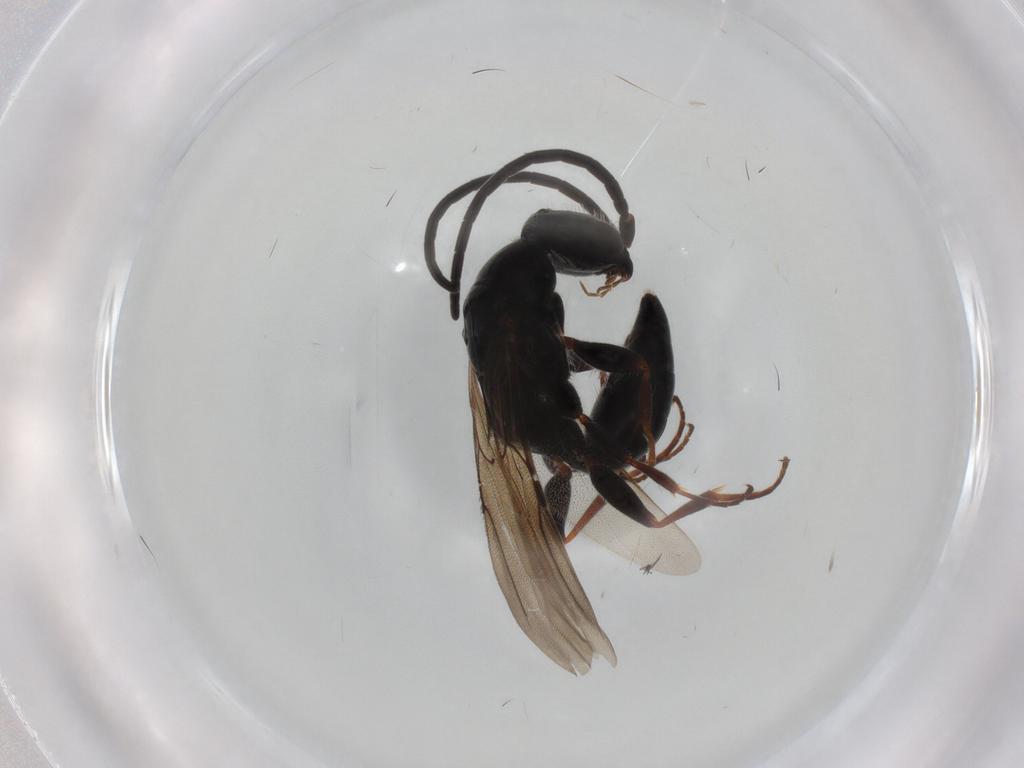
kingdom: Animalia
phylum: Arthropoda
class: Insecta
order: Hymenoptera
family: Bethylidae
